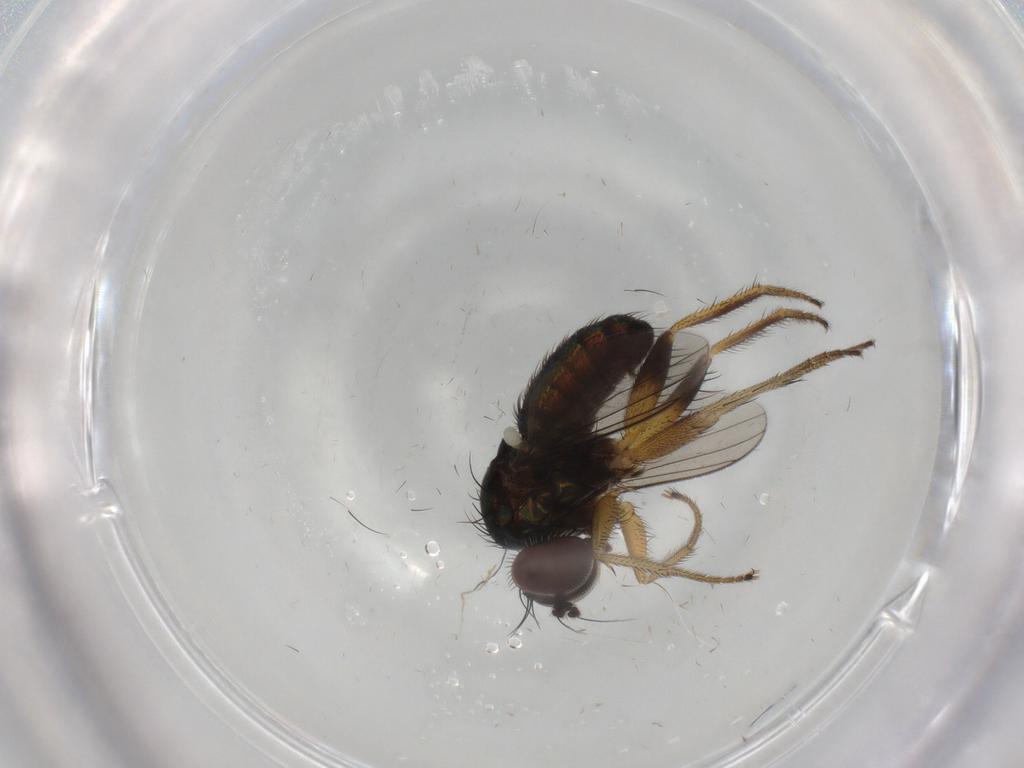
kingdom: Animalia
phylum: Arthropoda
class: Insecta
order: Diptera
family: Dolichopodidae
